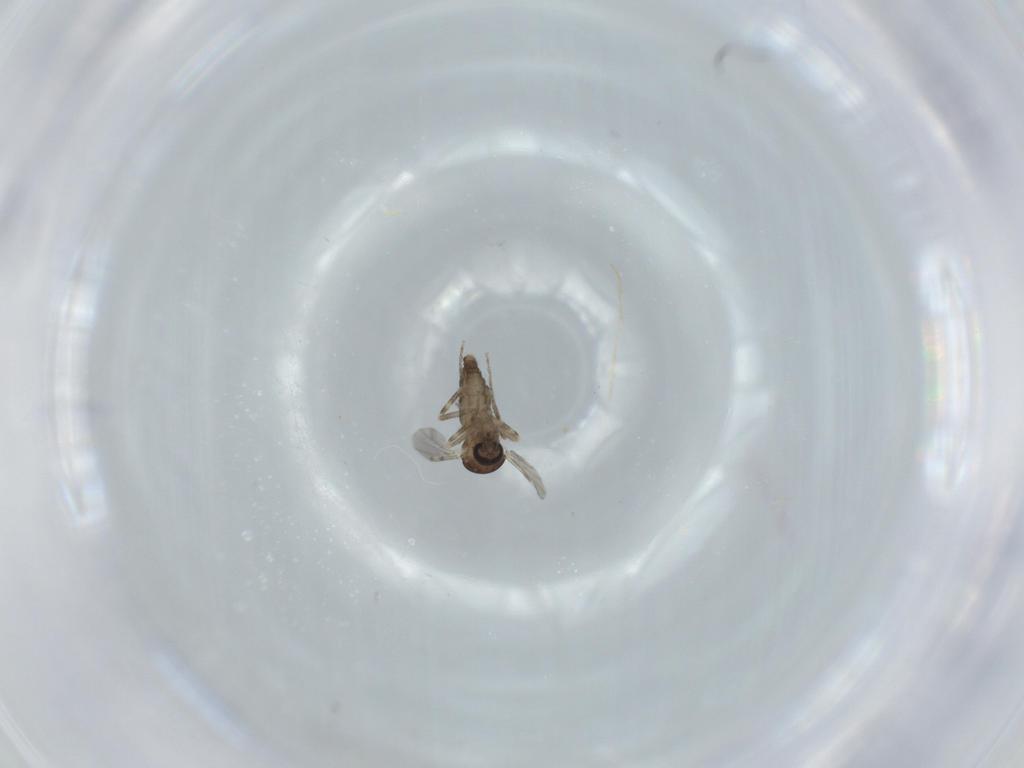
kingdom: Animalia
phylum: Arthropoda
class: Insecta
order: Diptera
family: Ceratopogonidae
